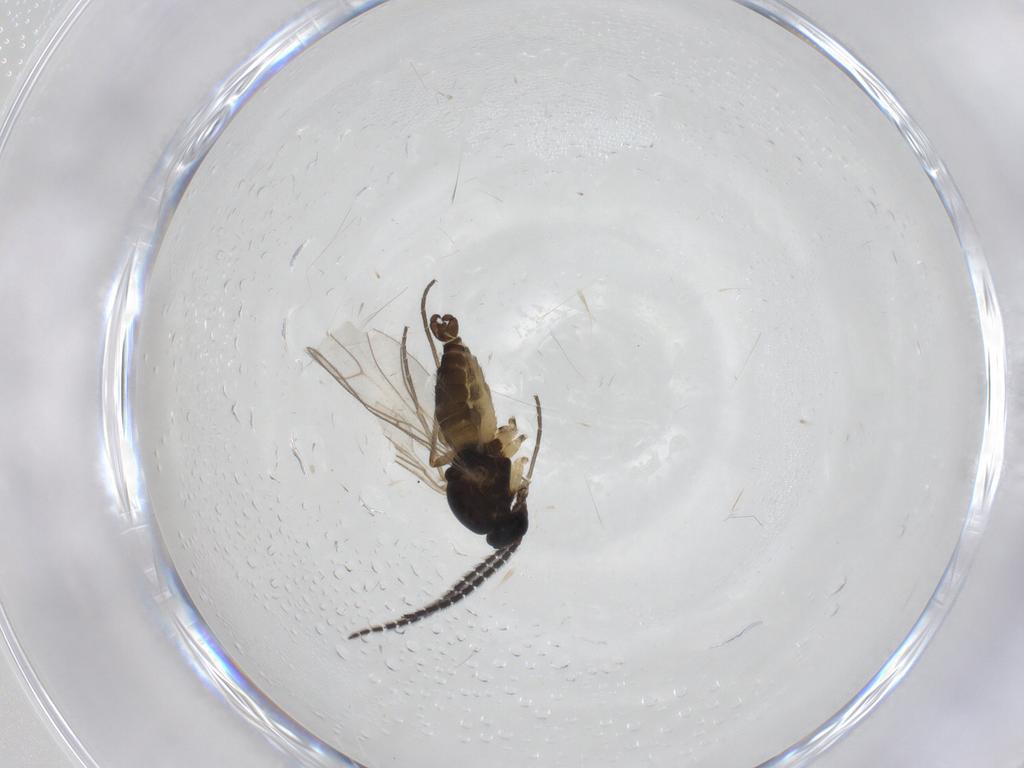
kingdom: Animalia
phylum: Arthropoda
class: Insecta
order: Diptera
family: Sciaridae
